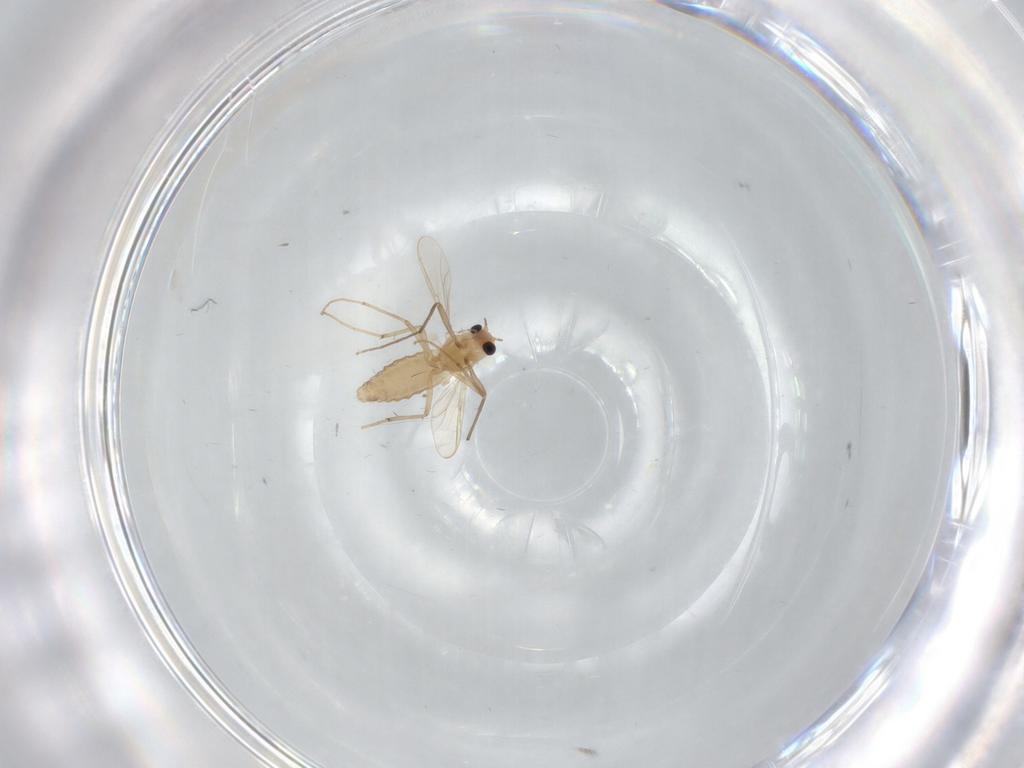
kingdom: Animalia
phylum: Arthropoda
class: Insecta
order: Diptera
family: Chironomidae
